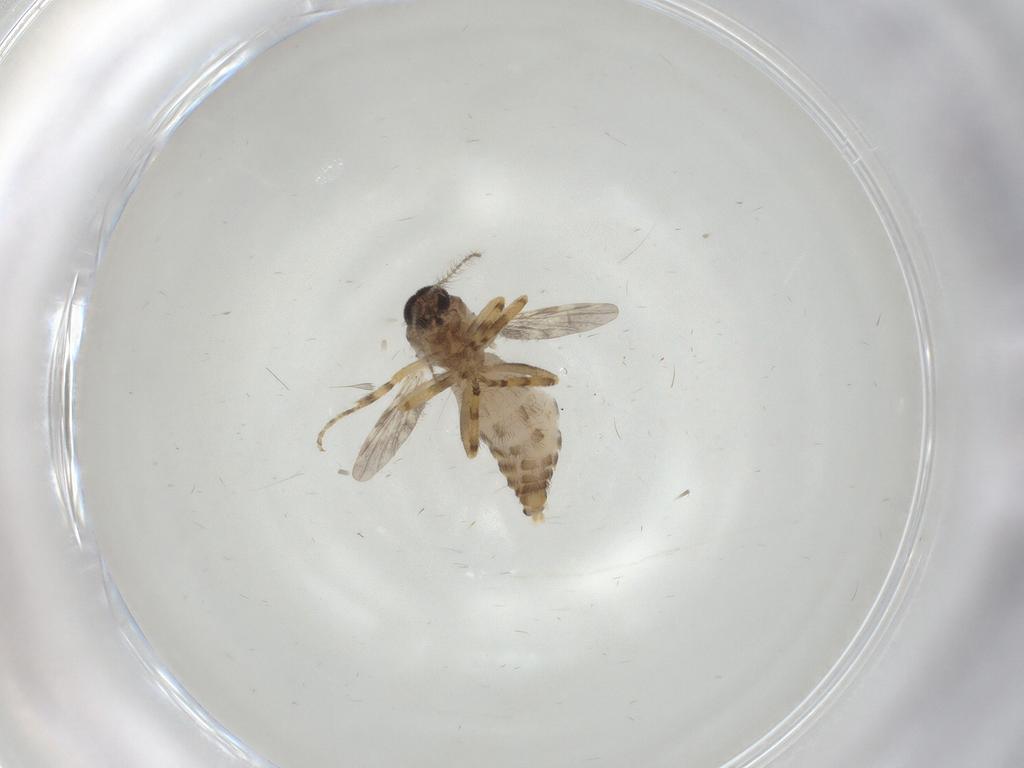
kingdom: Animalia
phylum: Arthropoda
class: Insecta
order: Diptera
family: Ceratopogonidae
